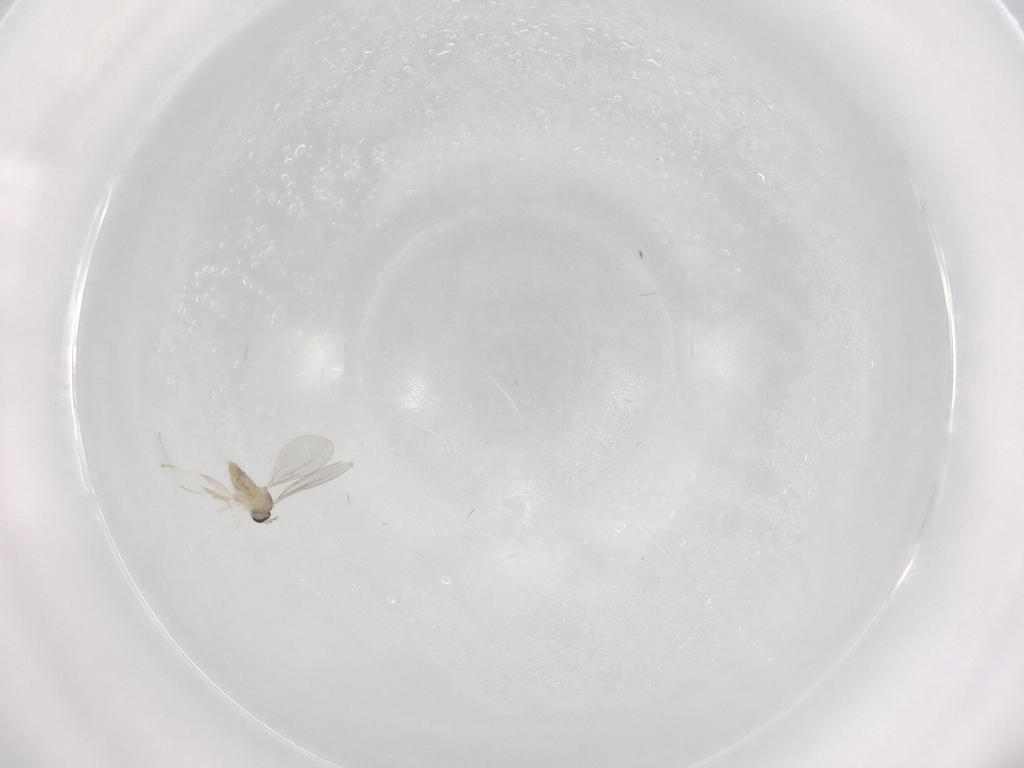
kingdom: Animalia
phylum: Arthropoda
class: Insecta
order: Diptera
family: Cecidomyiidae
